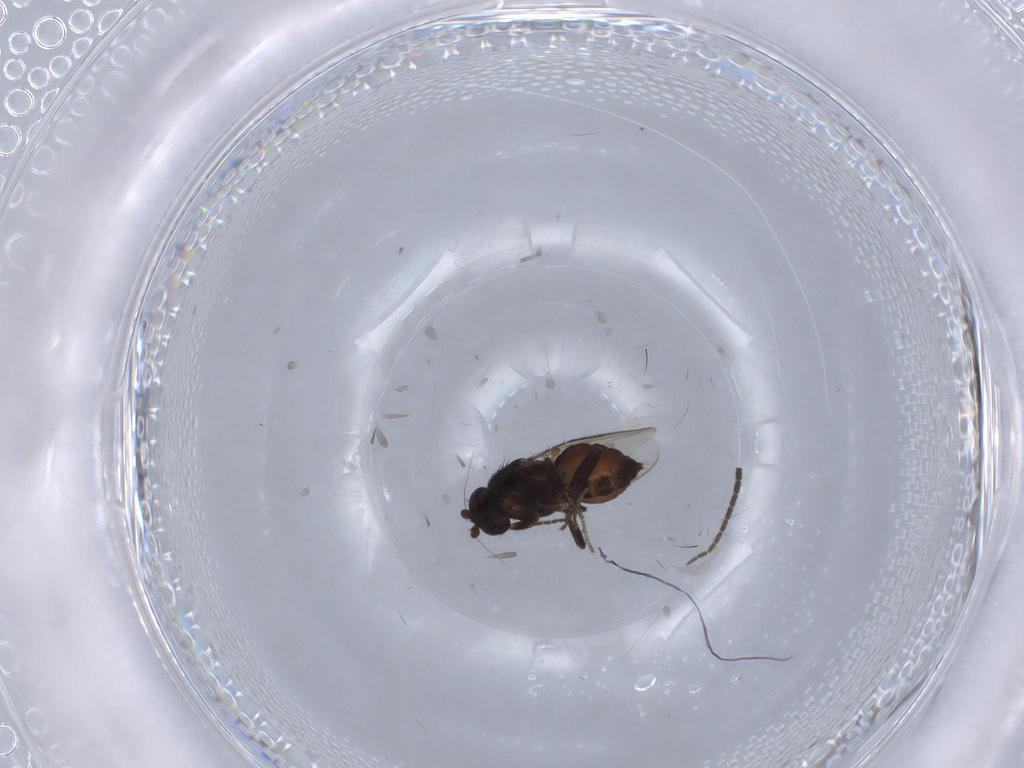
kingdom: Animalia
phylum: Arthropoda
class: Insecta
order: Diptera
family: Sphaeroceridae
